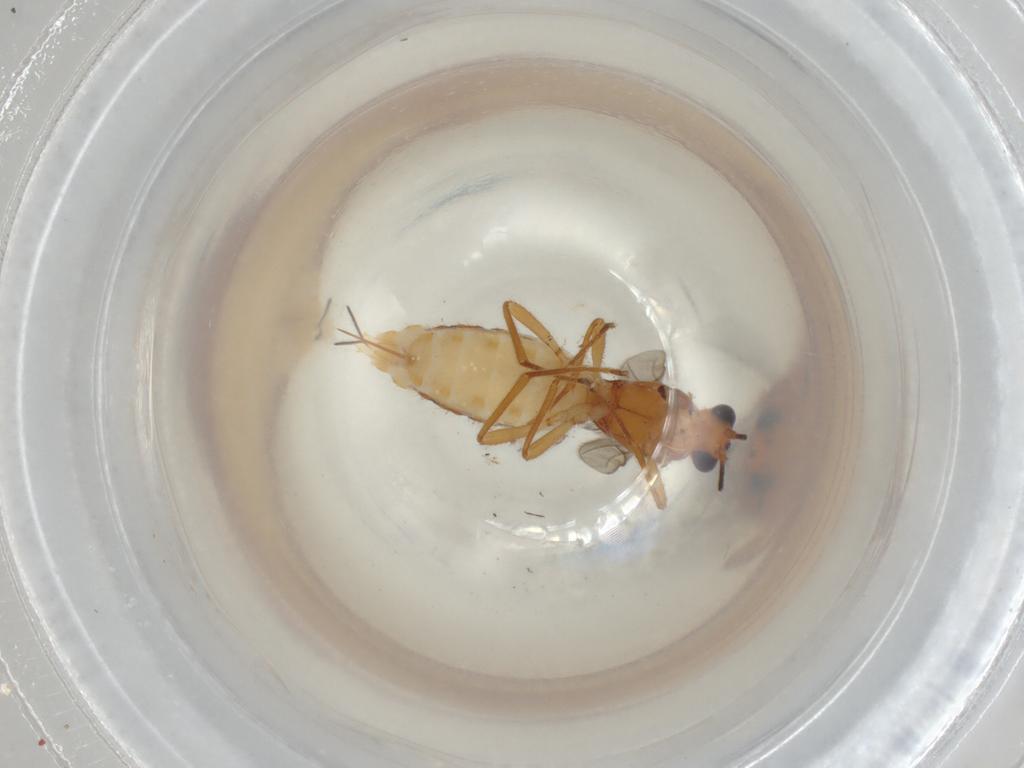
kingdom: Animalia
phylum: Arthropoda
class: Insecta
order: Hymenoptera
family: Braconidae
